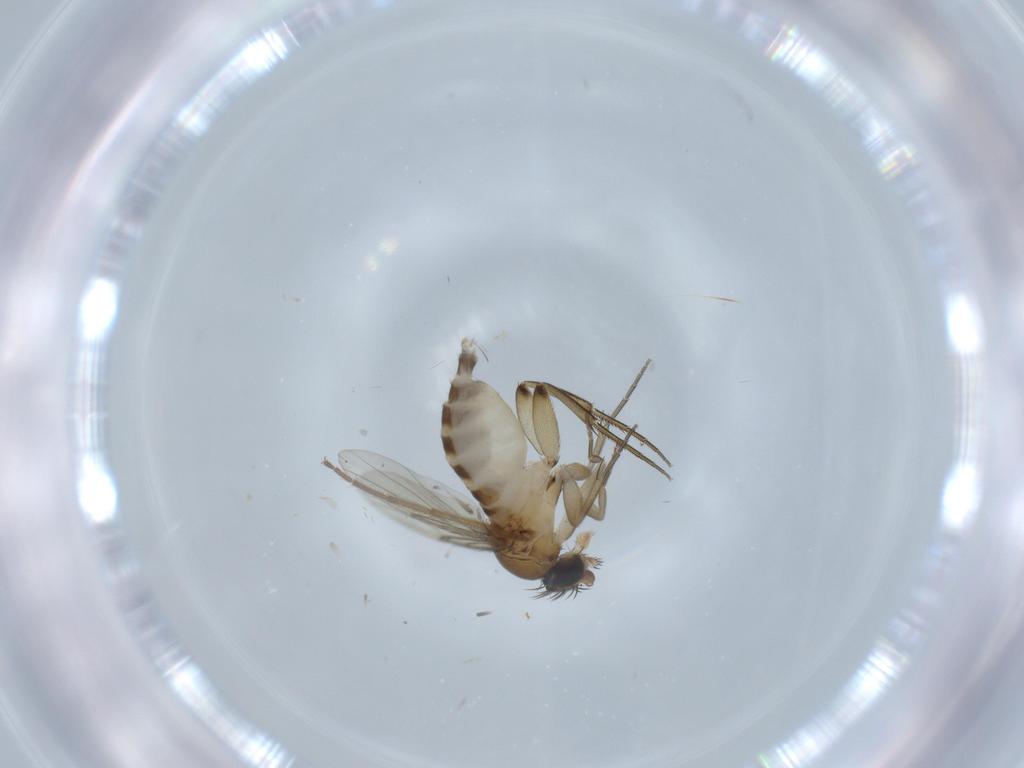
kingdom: Animalia
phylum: Arthropoda
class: Insecta
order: Diptera
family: Phoridae
